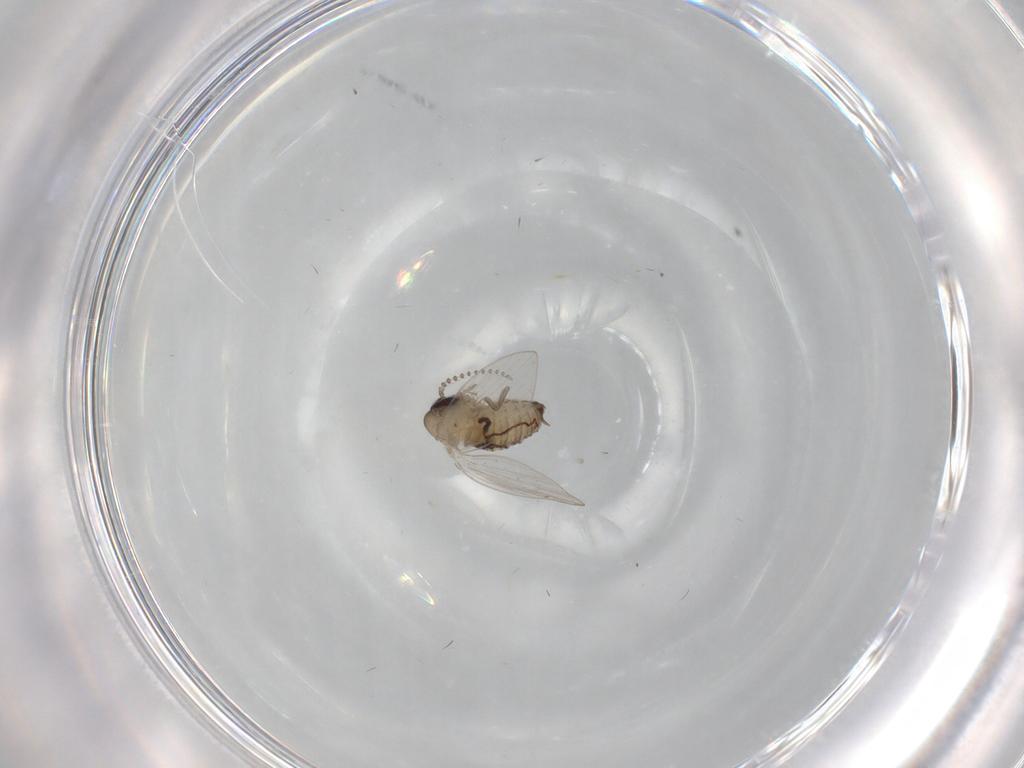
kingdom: Animalia
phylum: Arthropoda
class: Insecta
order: Diptera
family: Psychodidae
